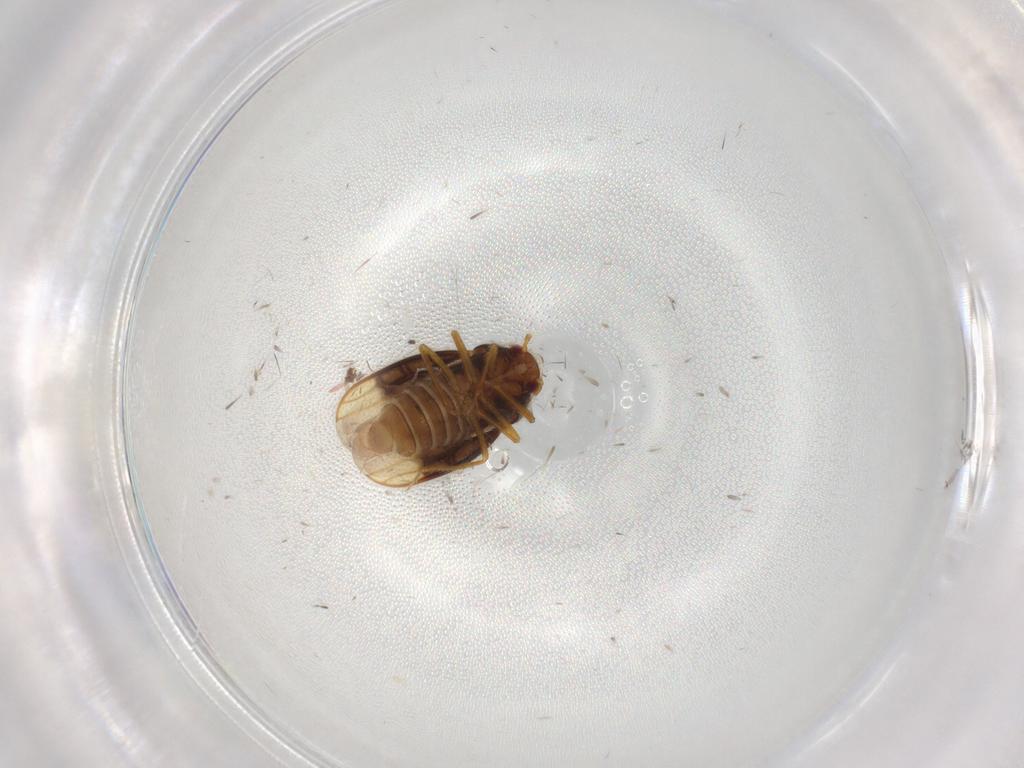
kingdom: Animalia
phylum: Arthropoda
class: Insecta
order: Hemiptera
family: Schizopteridae
